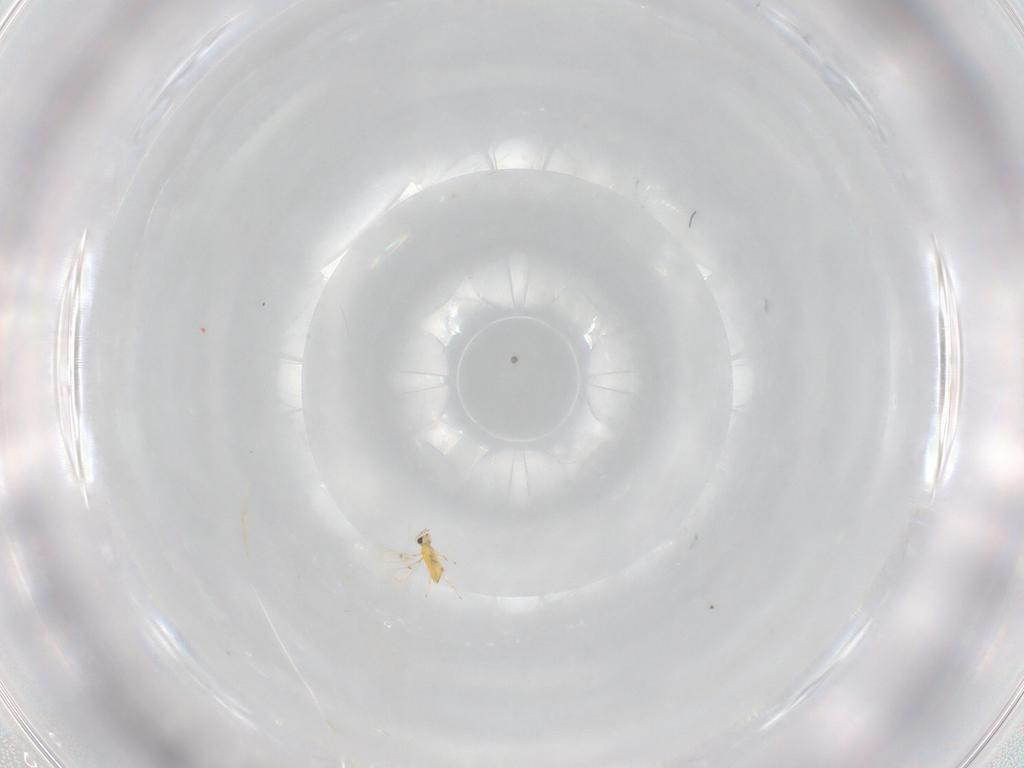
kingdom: Animalia
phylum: Arthropoda
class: Insecta
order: Hymenoptera
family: Trichogrammatidae
